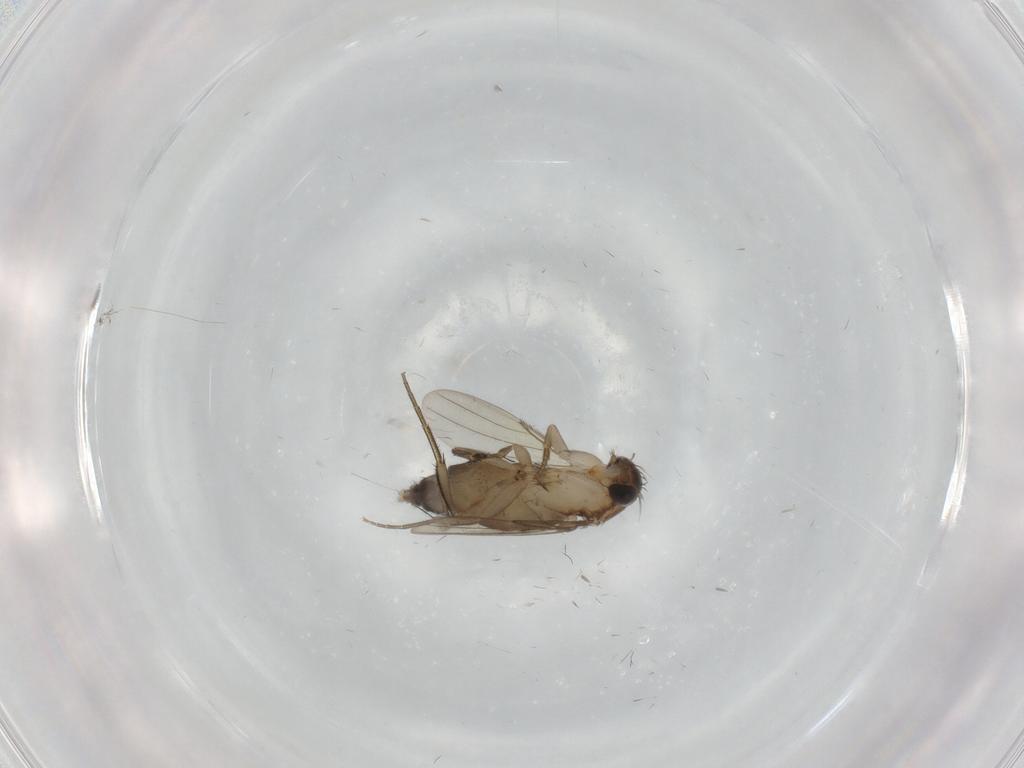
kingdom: Animalia
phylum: Arthropoda
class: Insecta
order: Diptera
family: Phoridae
